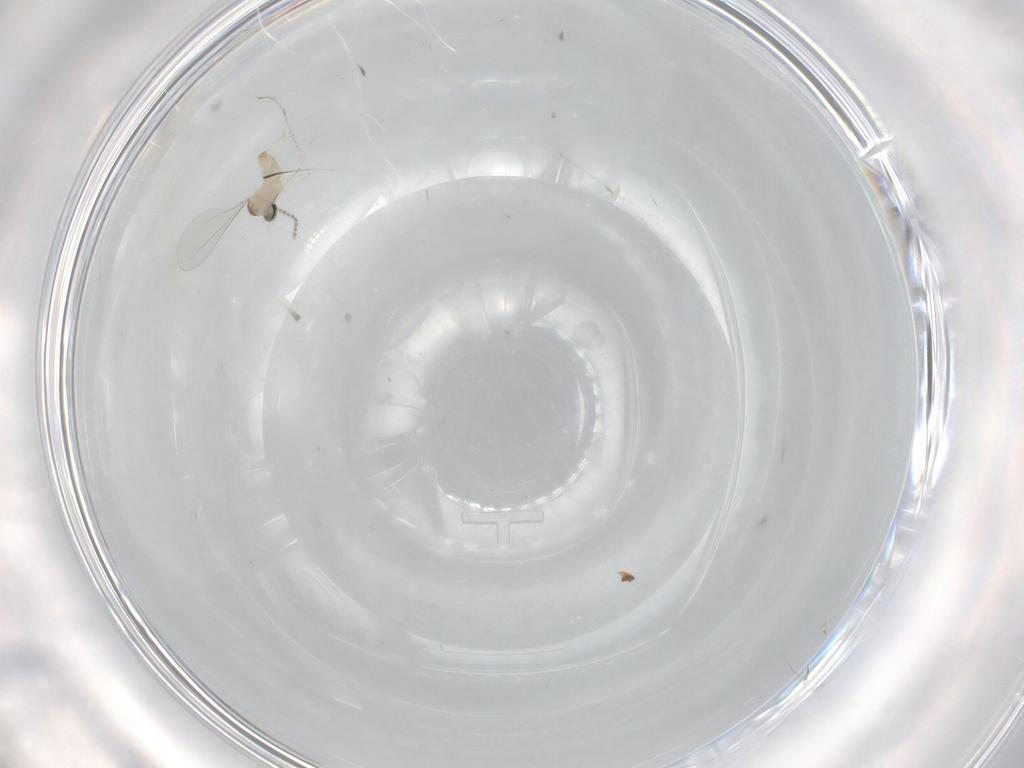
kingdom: Animalia
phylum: Arthropoda
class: Insecta
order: Diptera
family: Cecidomyiidae
